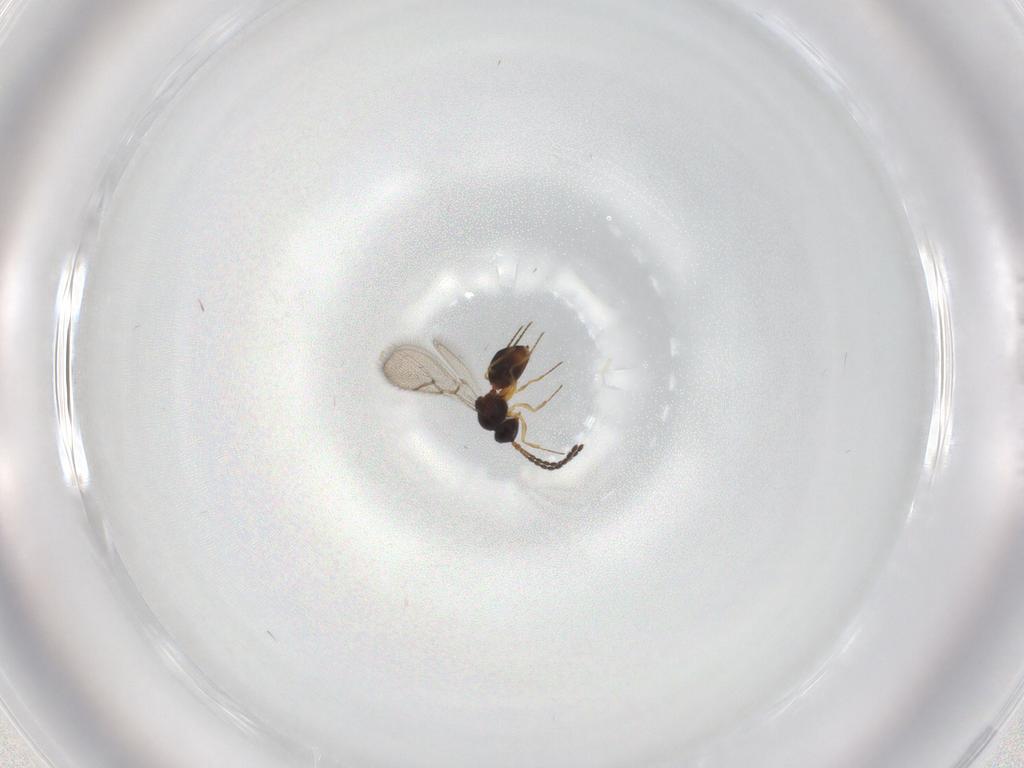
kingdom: Animalia
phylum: Arthropoda
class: Insecta
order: Hymenoptera
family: Figitidae
